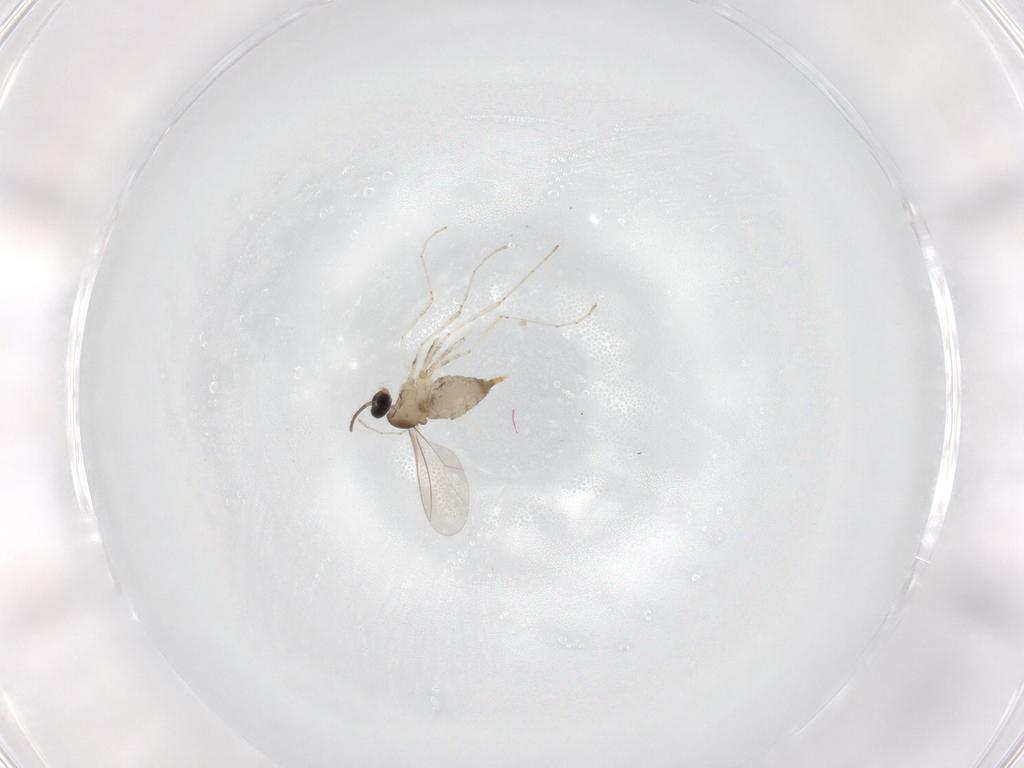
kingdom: Animalia
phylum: Arthropoda
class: Insecta
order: Diptera
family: Cecidomyiidae
